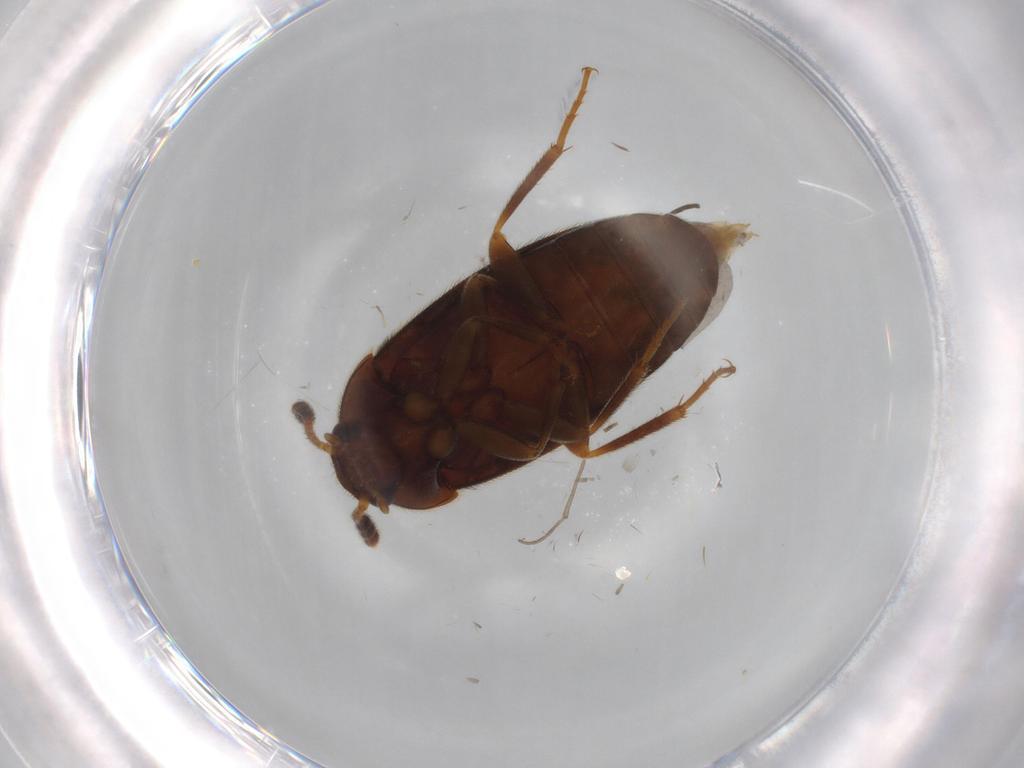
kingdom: Animalia
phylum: Arthropoda
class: Insecta
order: Coleoptera
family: Mycetophagidae
